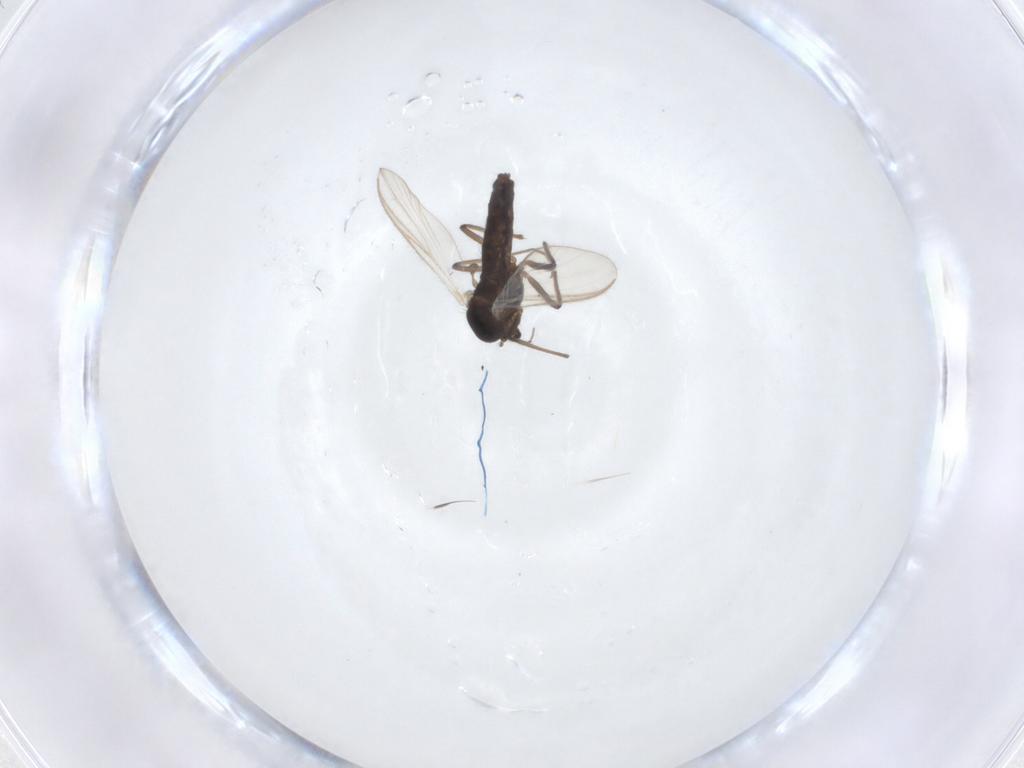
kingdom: Animalia
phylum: Arthropoda
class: Insecta
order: Diptera
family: Chironomidae
